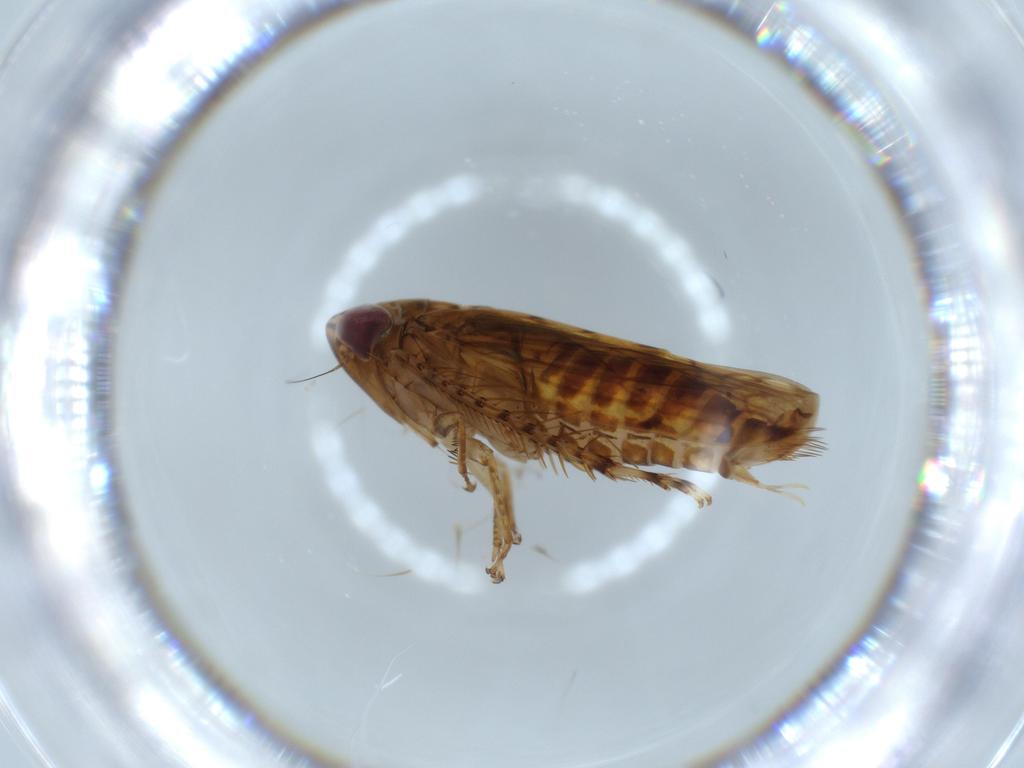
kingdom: Animalia
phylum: Arthropoda
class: Insecta
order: Hemiptera
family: Cicadellidae
